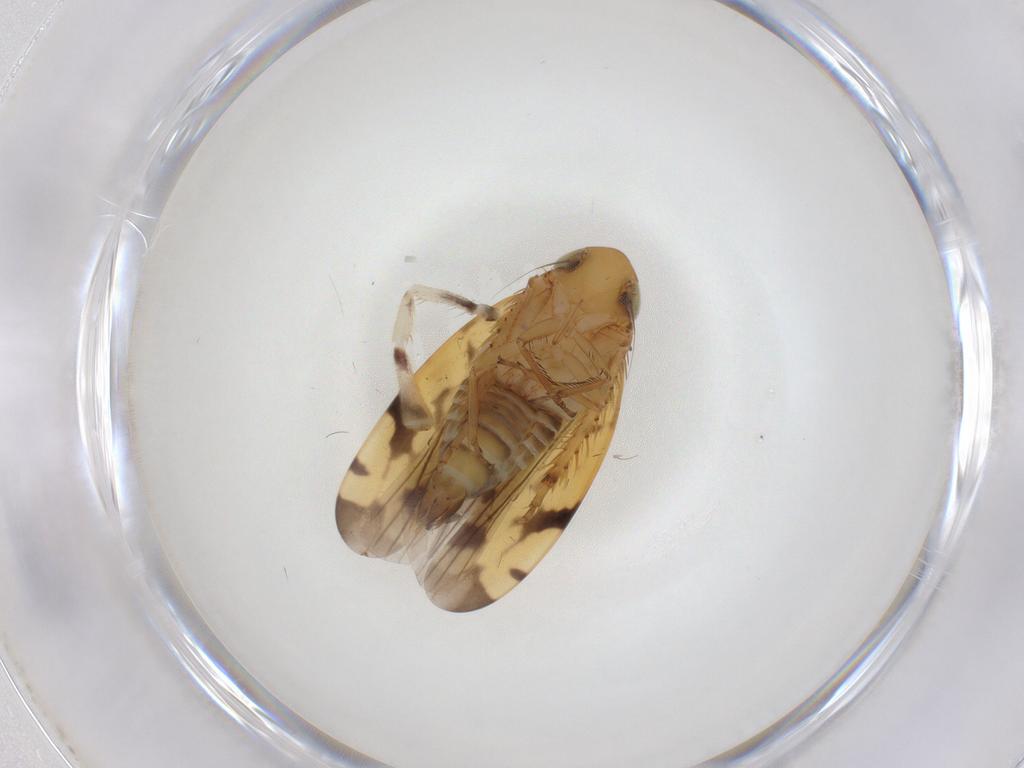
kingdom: Animalia
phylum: Arthropoda
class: Insecta
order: Hemiptera
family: Cicadellidae
